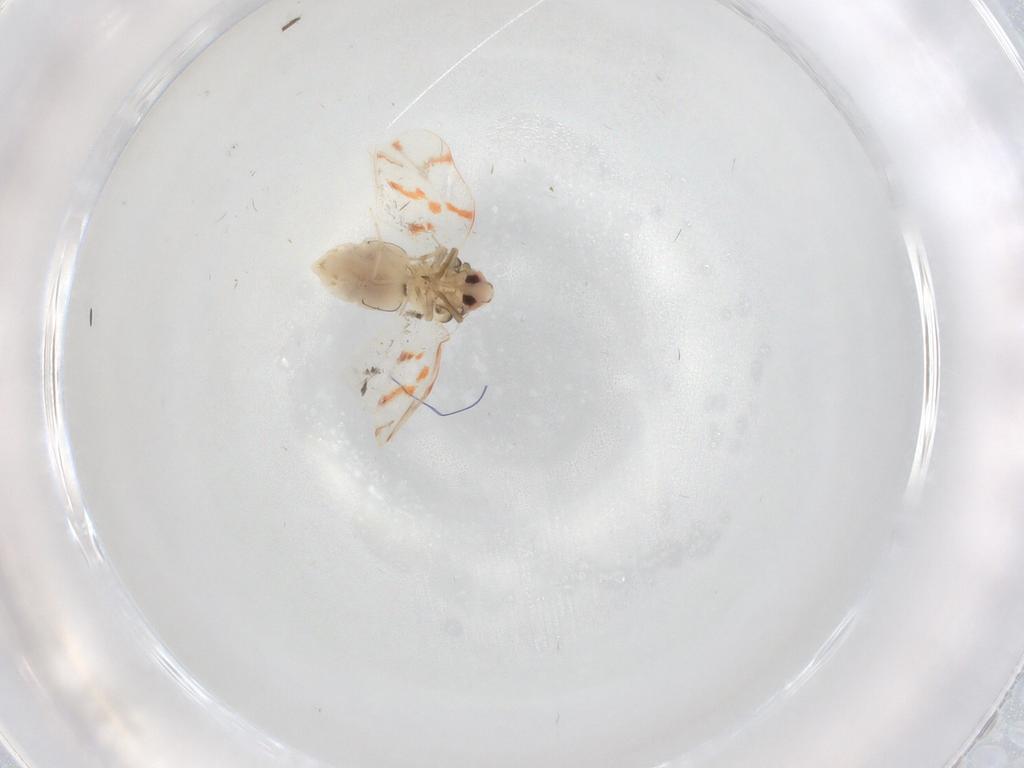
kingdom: Animalia
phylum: Arthropoda
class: Insecta
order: Hemiptera
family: Aleyrodidae
